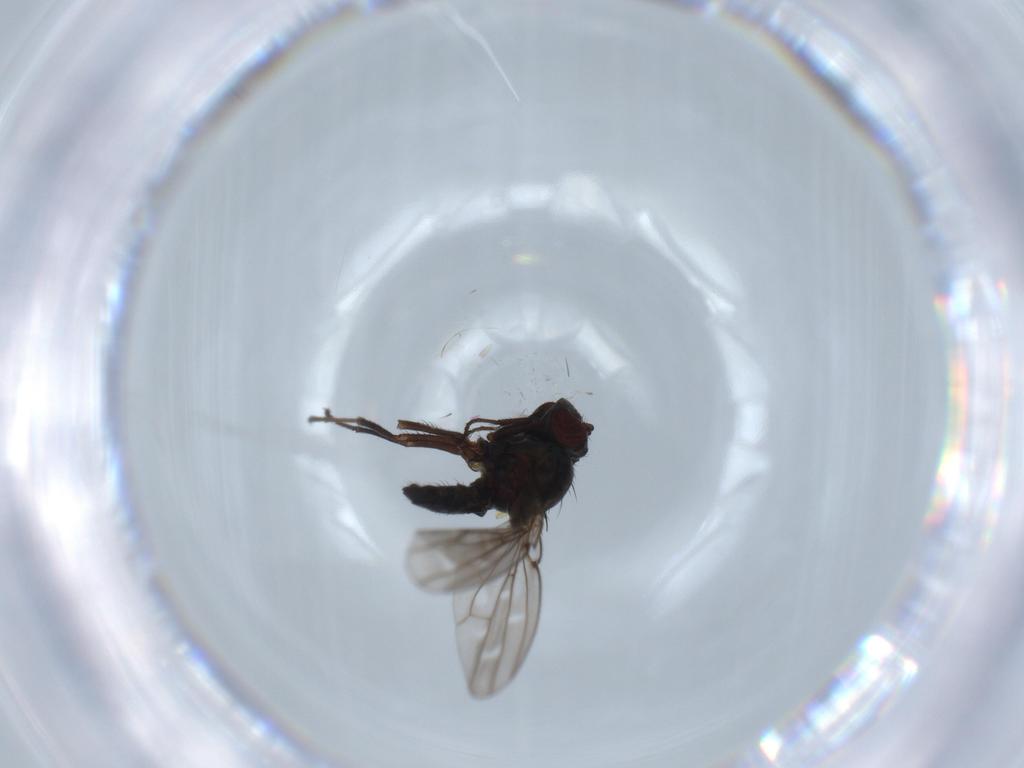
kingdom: Animalia
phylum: Arthropoda
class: Insecta
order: Diptera
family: Ephydridae
